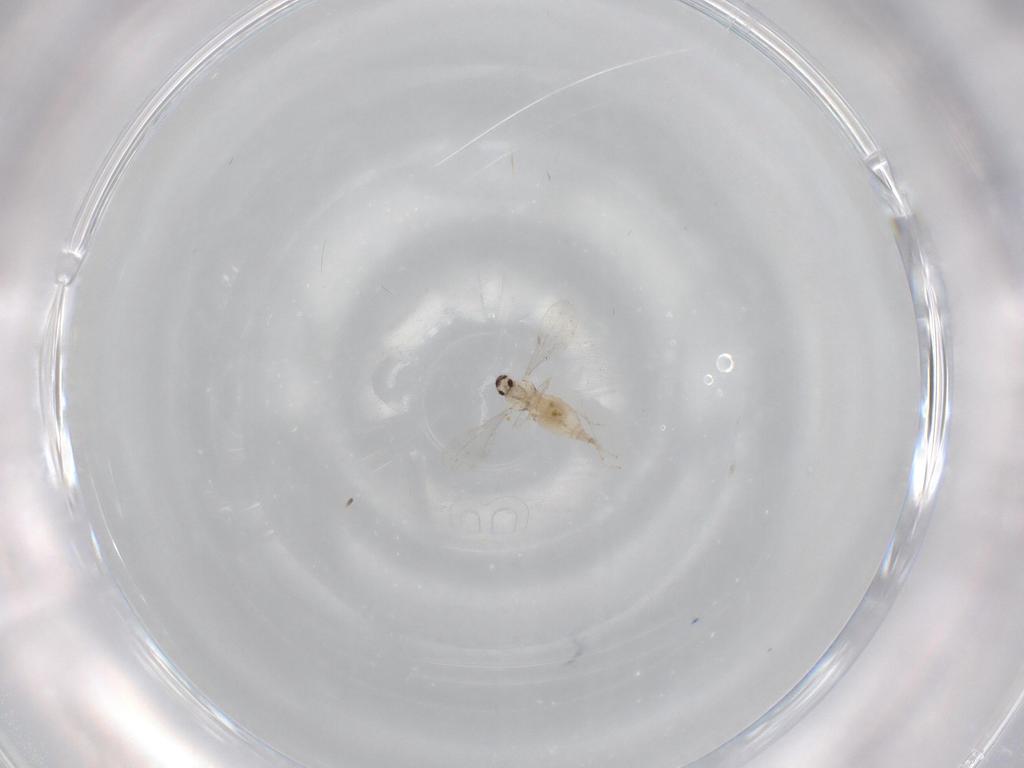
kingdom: Animalia
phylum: Arthropoda
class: Insecta
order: Diptera
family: Cecidomyiidae
